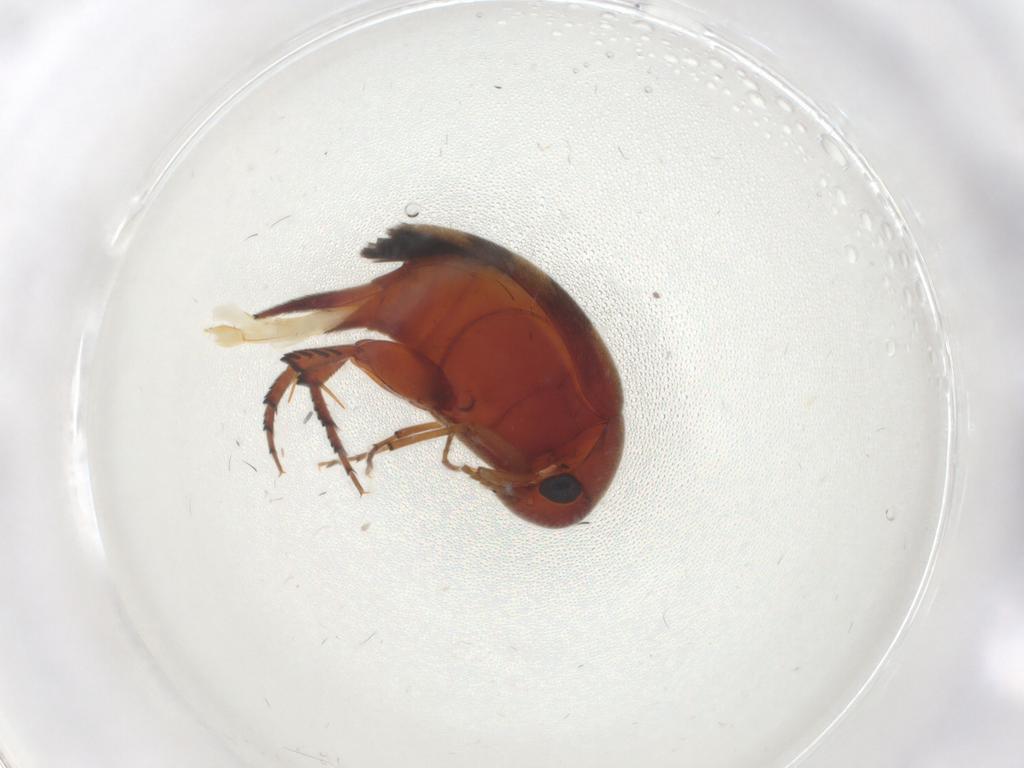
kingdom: Animalia
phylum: Arthropoda
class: Insecta
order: Coleoptera
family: Mordellidae
